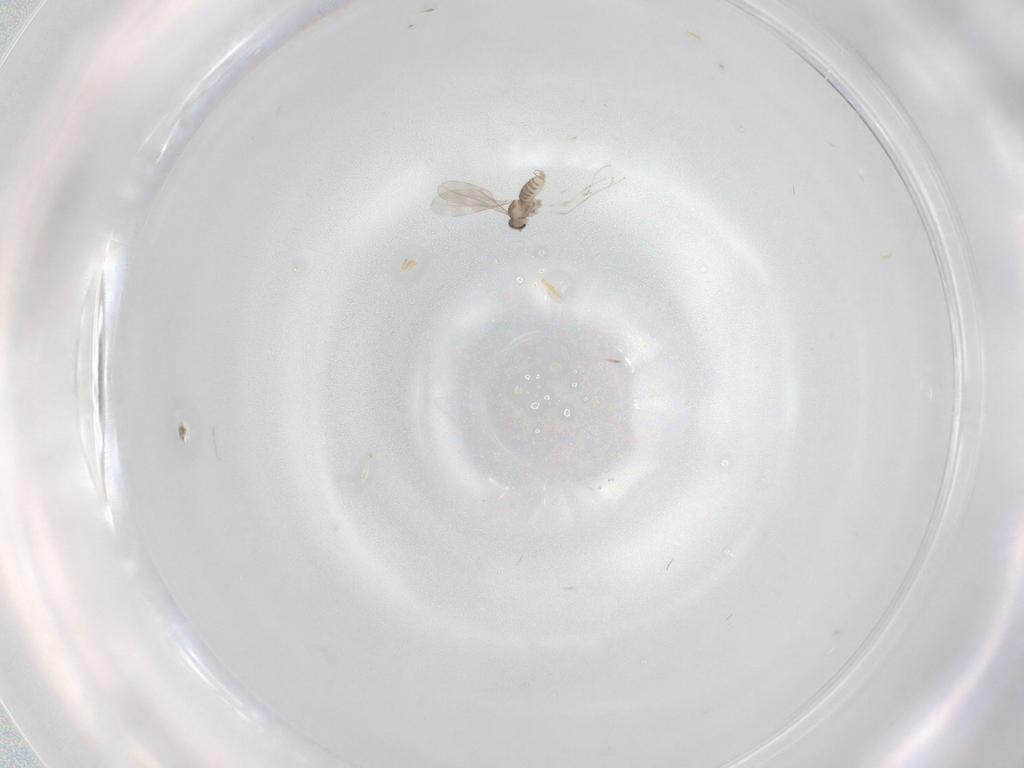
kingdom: Animalia
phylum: Arthropoda
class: Insecta
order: Diptera
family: Cecidomyiidae
